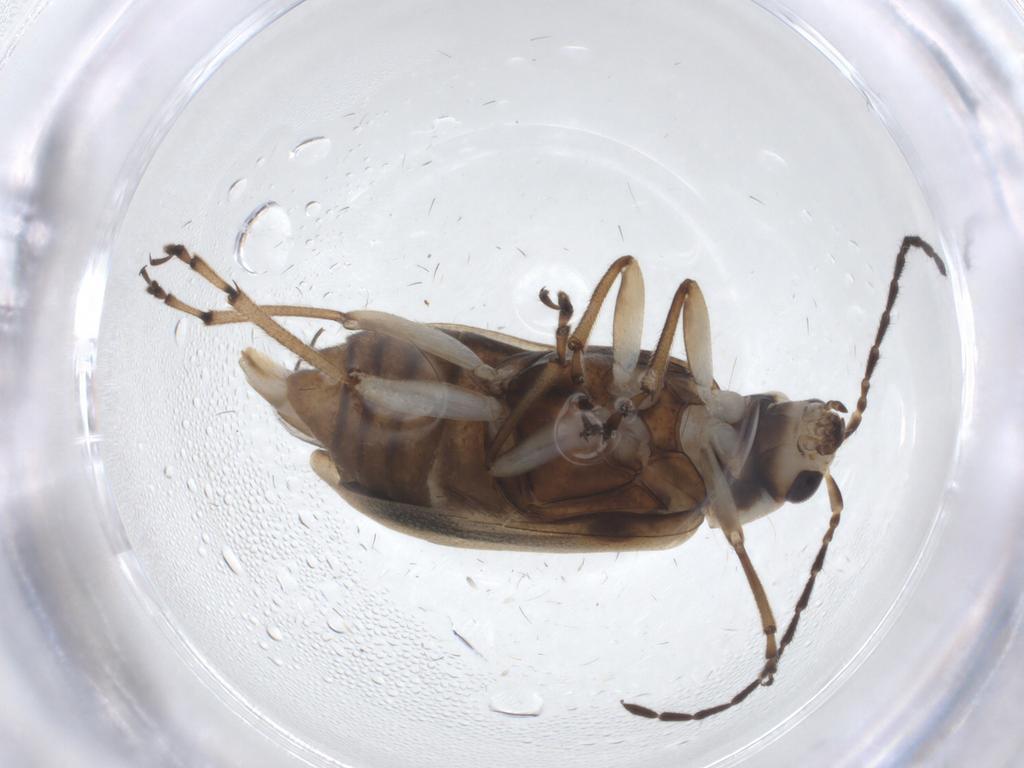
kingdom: Animalia
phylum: Arthropoda
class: Insecta
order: Coleoptera
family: Chrysomelidae
